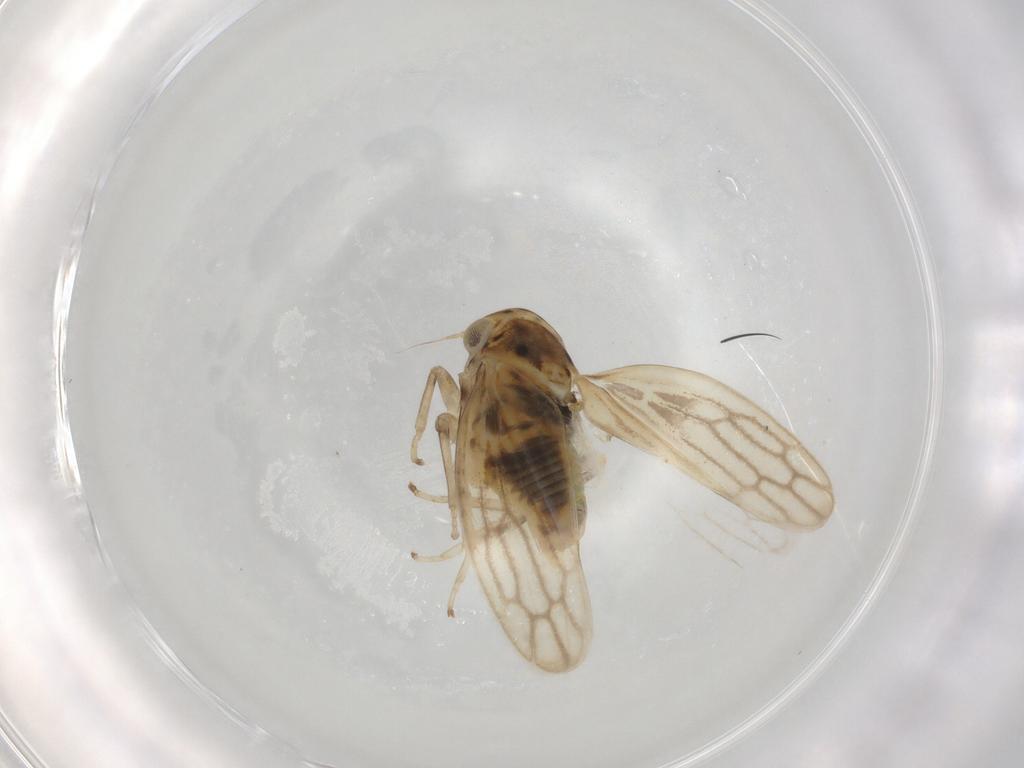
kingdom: Animalia
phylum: Arthropoda
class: Insecta
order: Hemiptera
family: Cicadellidae
